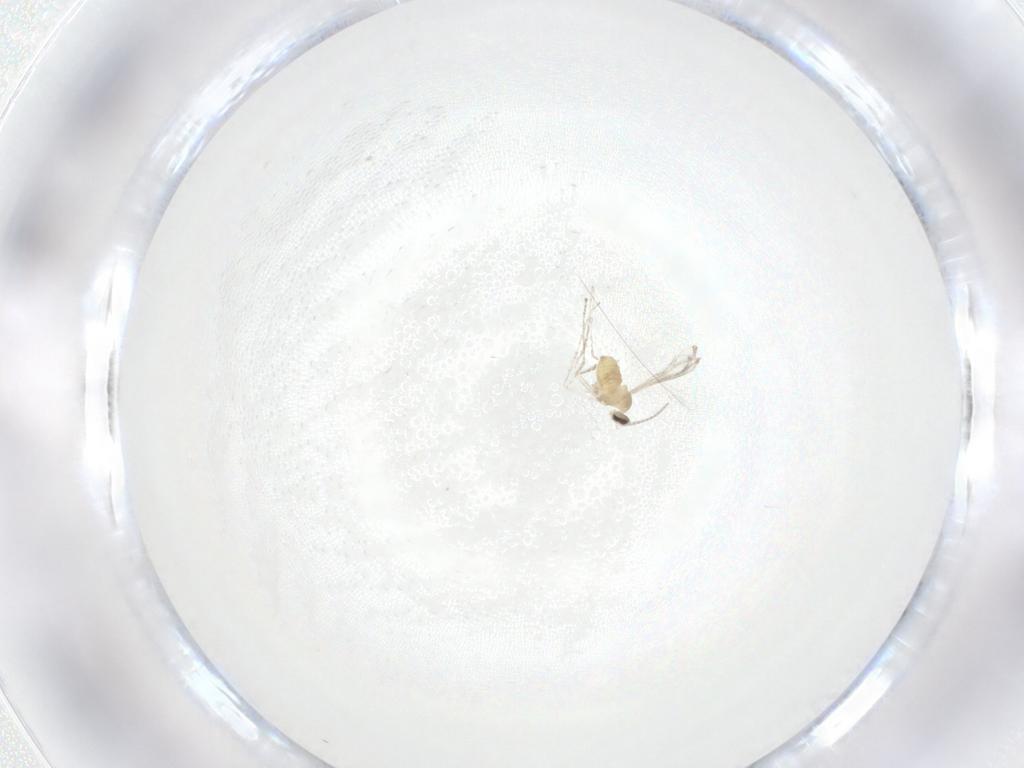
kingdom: Animalia
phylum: Arthropoda
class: Insecta
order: Diptera
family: Cecidomyiidae
